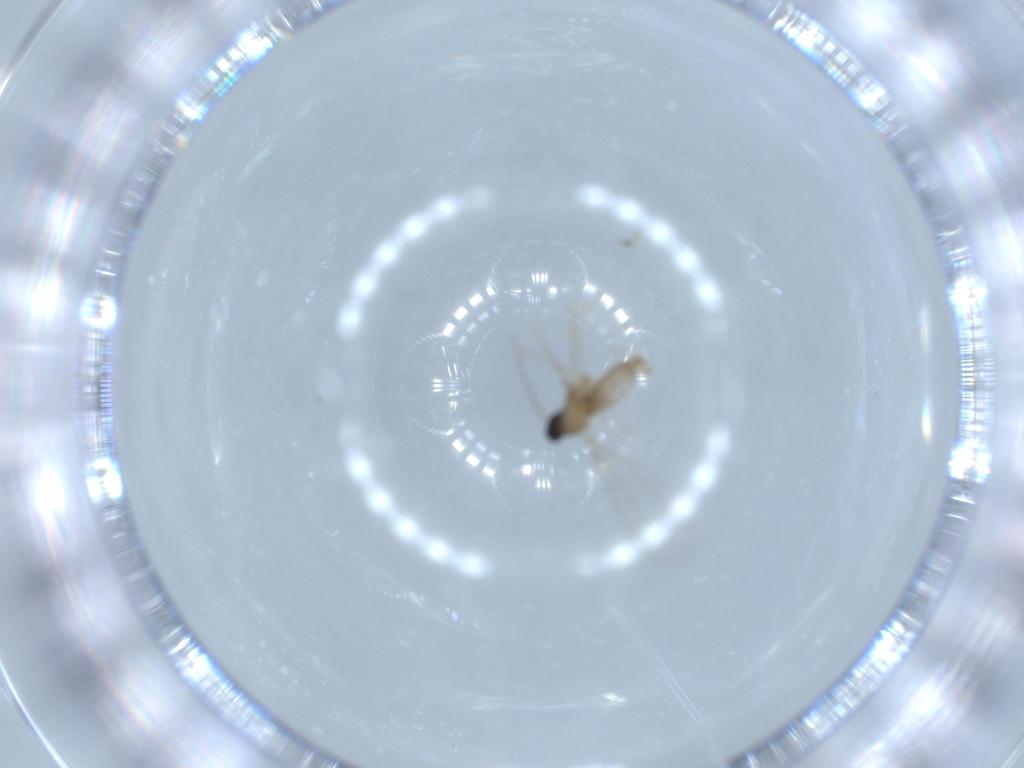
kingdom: Animalia
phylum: Arthropoda
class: Insecta
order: Diptera
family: Cecidomyiidae
